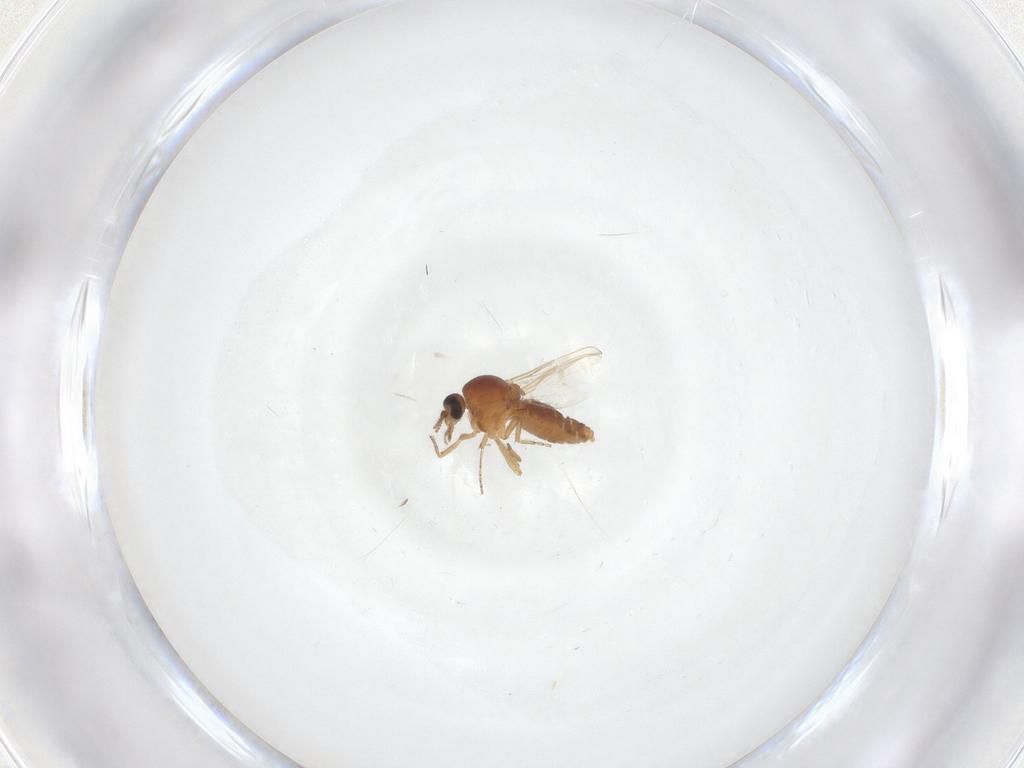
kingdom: Animalia
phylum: Arthropoda
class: Insecta
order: Diptera
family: Ceratopogonidae
